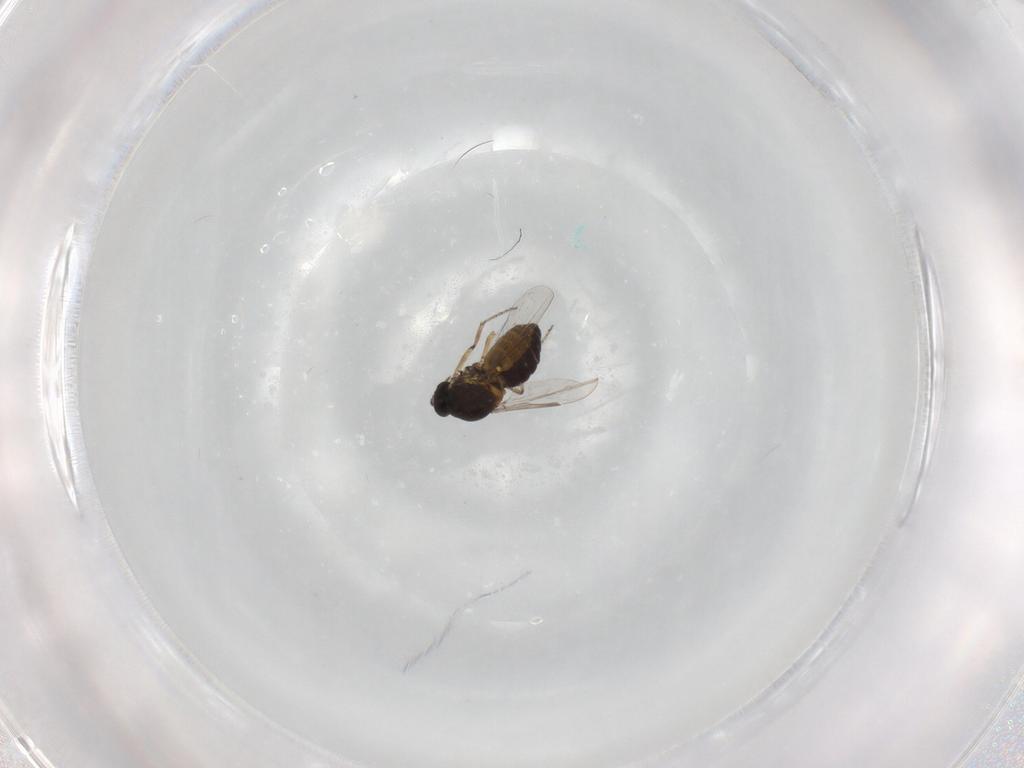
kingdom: Animalia
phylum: Arthropoda
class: Insecta
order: Diptera
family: Ceratopogonidae
